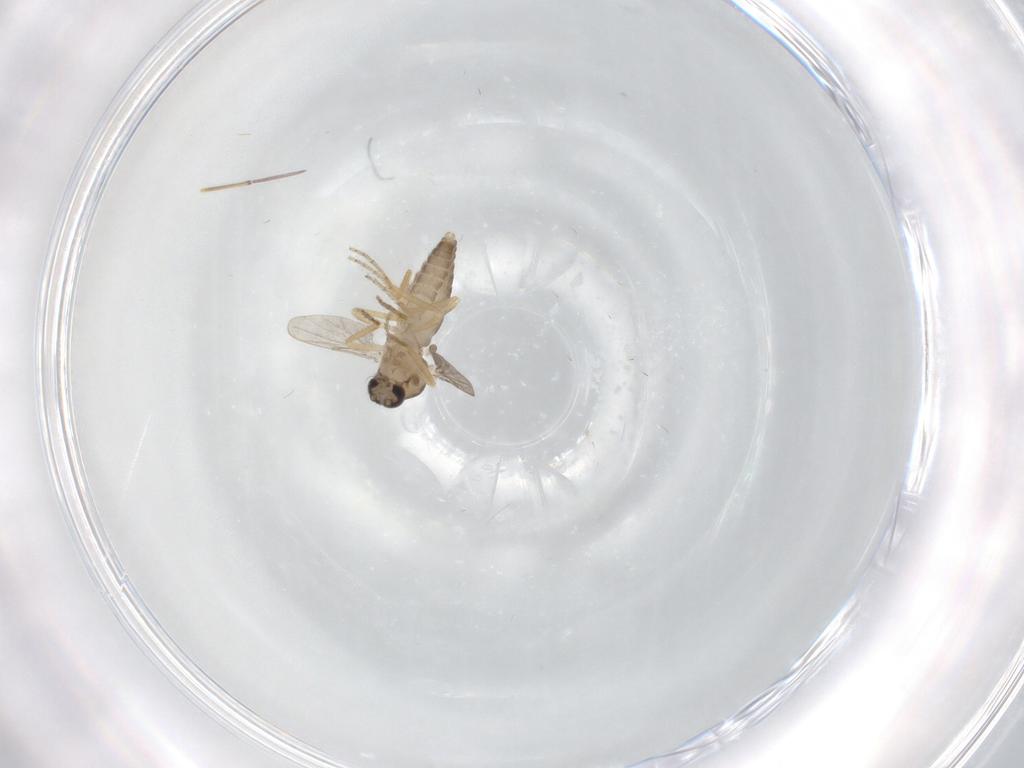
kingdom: Animalia
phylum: Arthropoda
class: Insecta
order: Diptera
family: Ceratopogonidae
